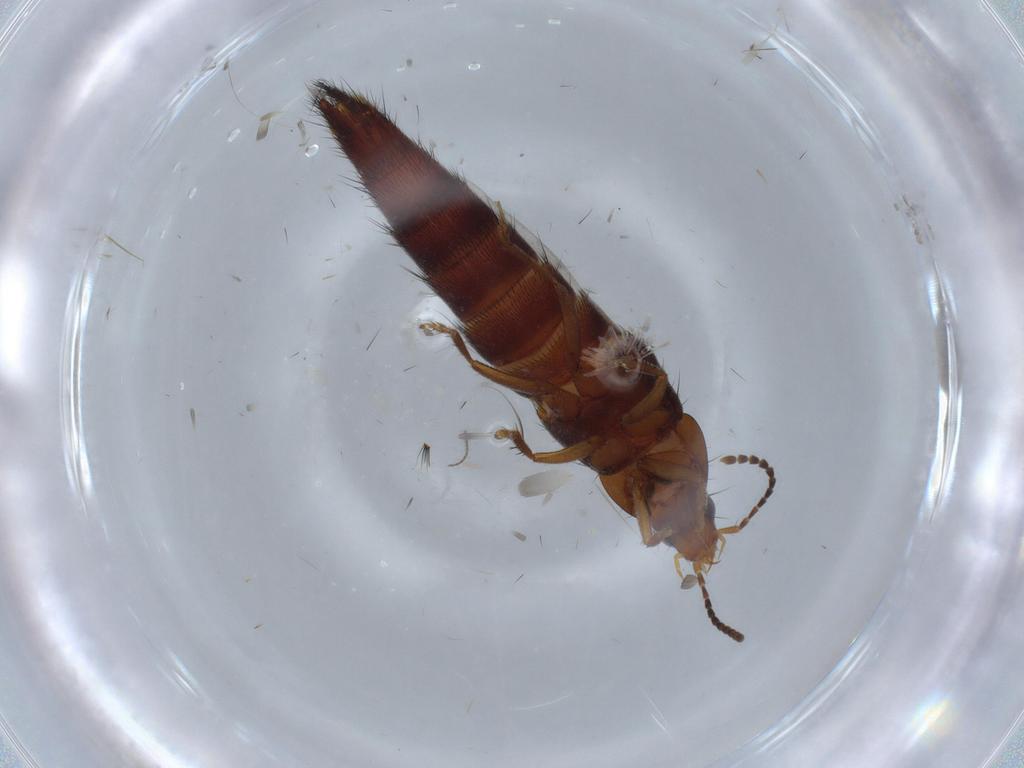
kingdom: Animalia
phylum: Arthropoda
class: Insecta
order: Coleoptera
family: Staphylinidae
